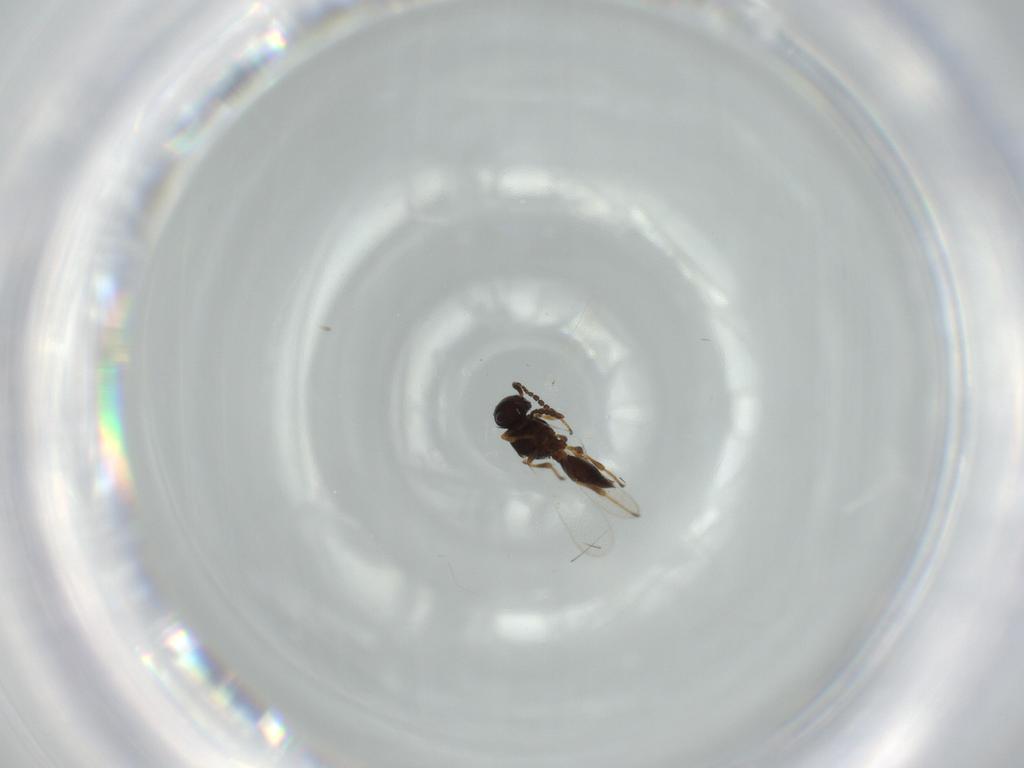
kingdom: Animalia
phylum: Arthropoda
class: Insecta
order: Hymenoptera
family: Platygastridae
